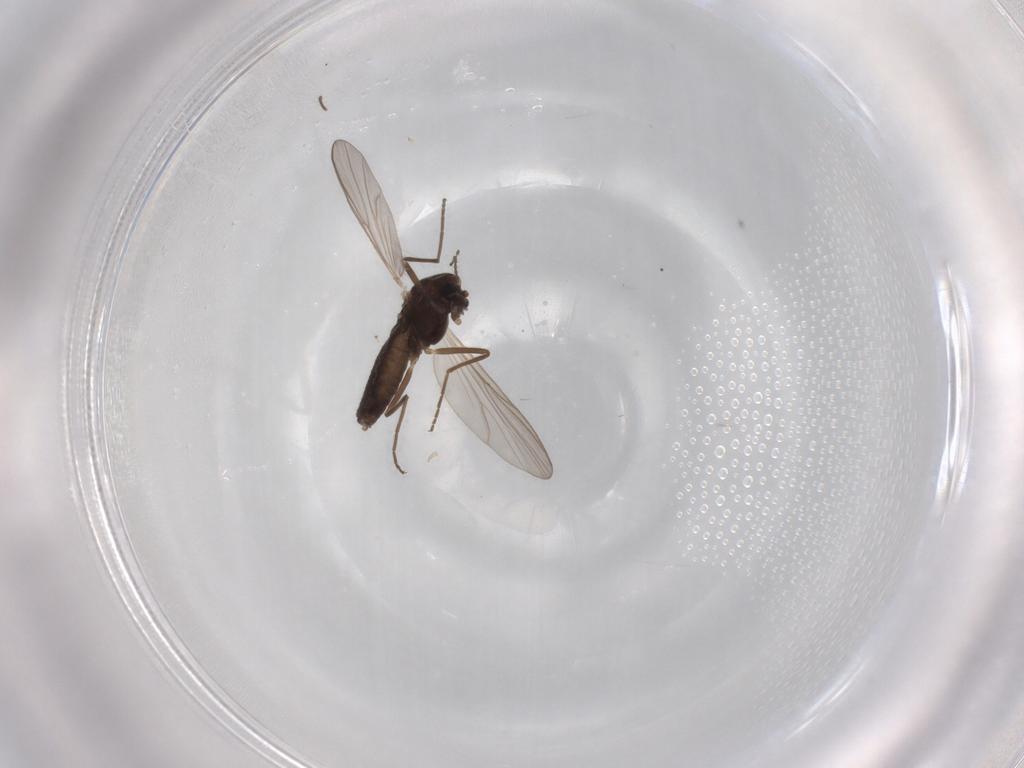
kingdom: Animalia
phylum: Arthropoda
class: Insecta
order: Diptera
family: Chironomidae
